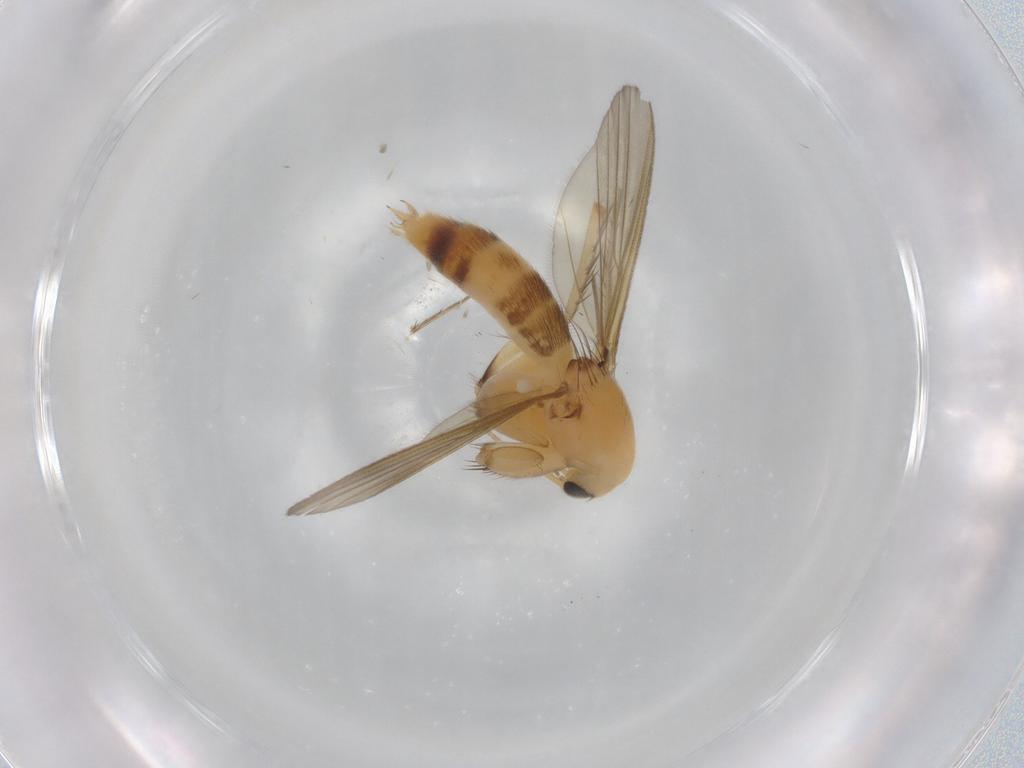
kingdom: Animalia
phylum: Arthropoda
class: Insecta
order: Diptera
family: Mycetophilidae
